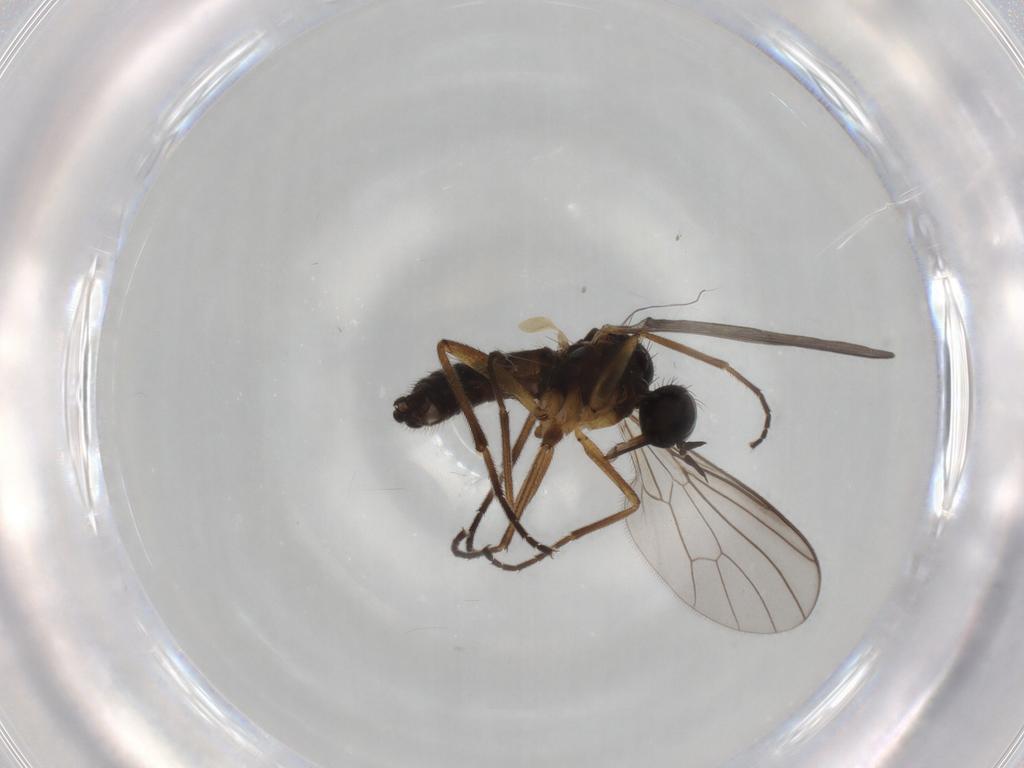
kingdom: Animalia
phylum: Arthropoda
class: Insecta
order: Diptera
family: Empididae
